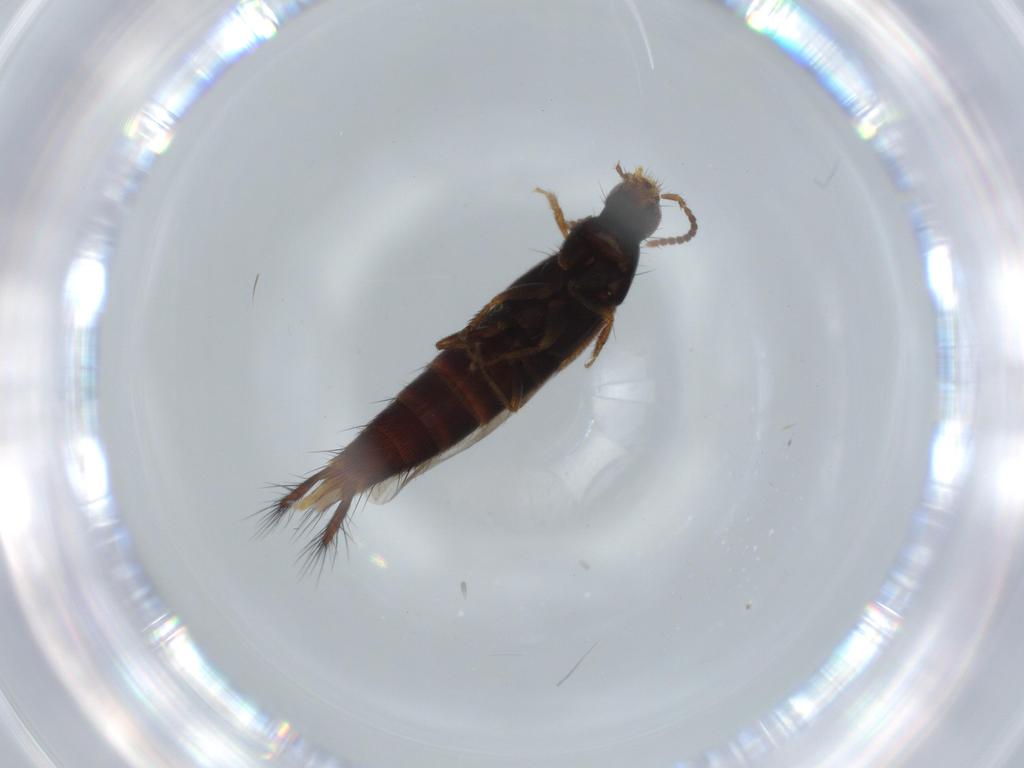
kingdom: Animalia
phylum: Arthropoda
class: Insecta
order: Coleoptera
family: Staphylinidae
